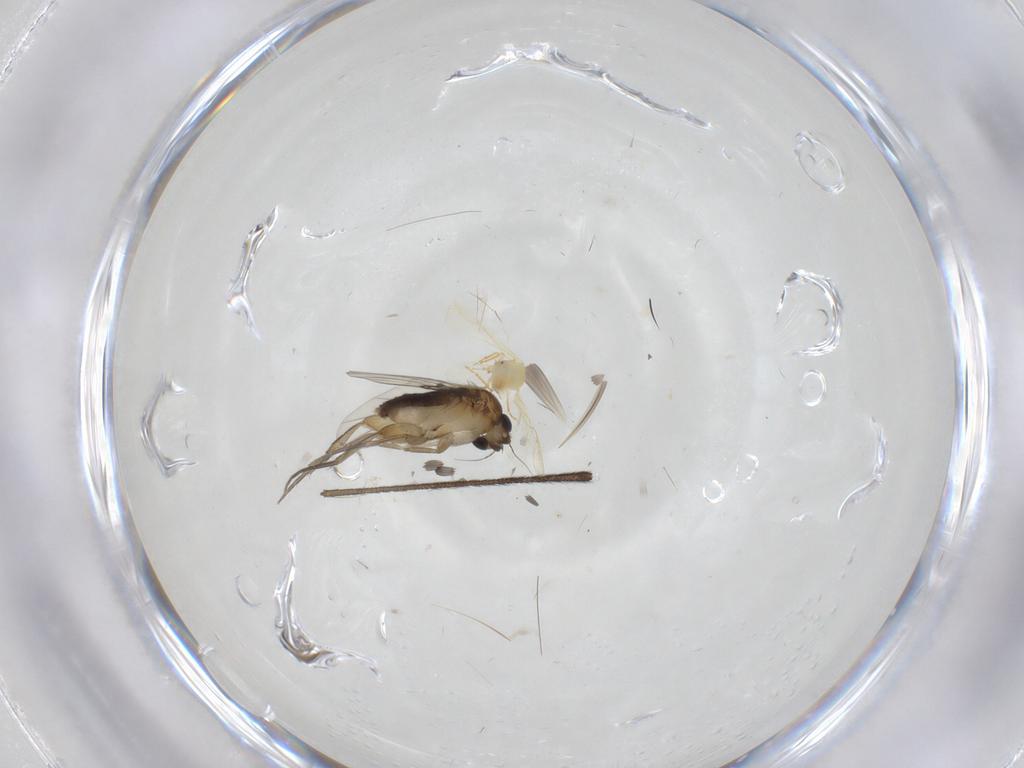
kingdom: Animalia
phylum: Arthropoda
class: Insecta
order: Diptera
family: Phoridae
